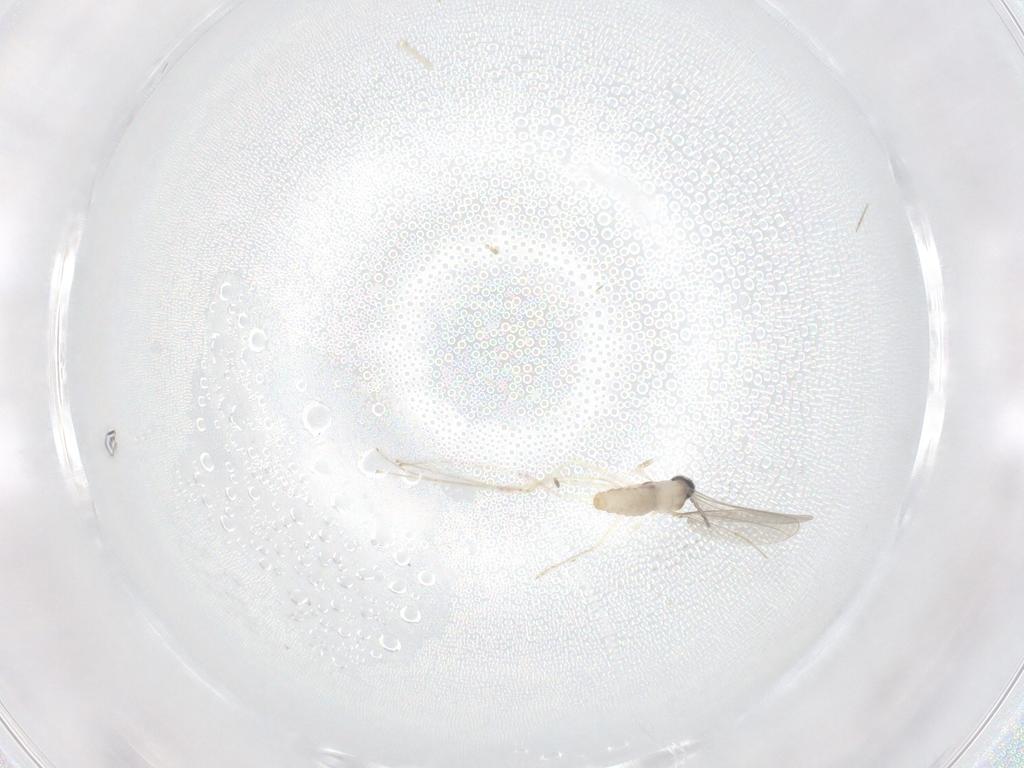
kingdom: Animalia
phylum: Arthropoda
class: Insecta
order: Diptera
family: Cecidomyiidae
